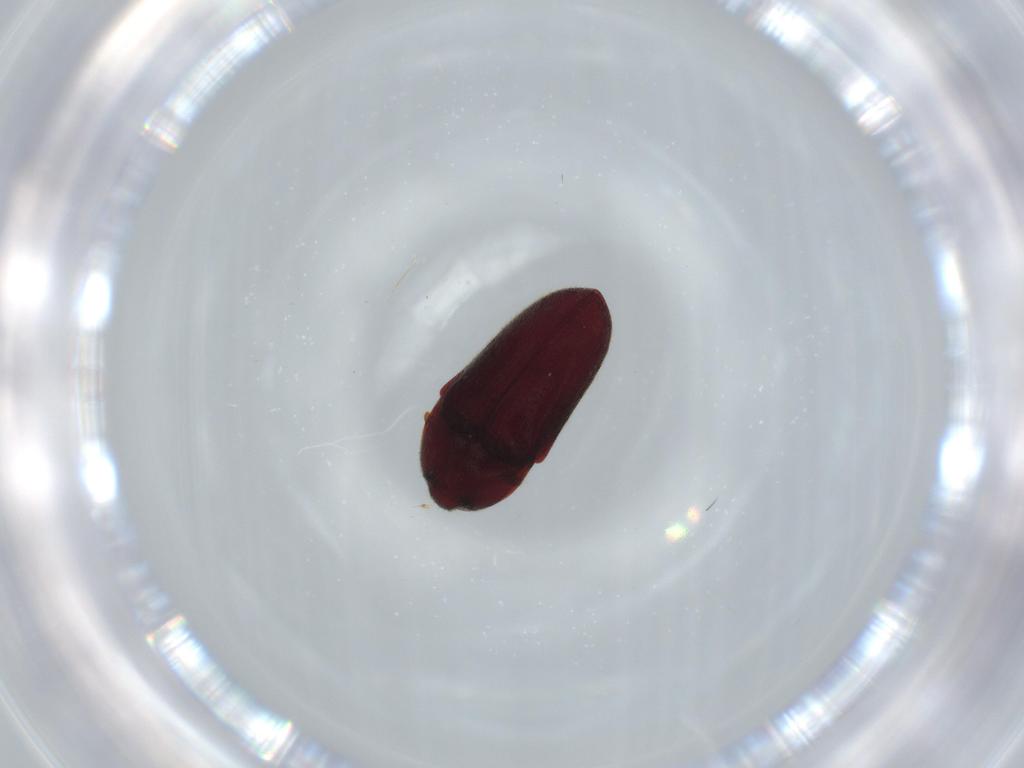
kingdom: Animalia
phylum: Arthropoda
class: Insecta
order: Coleoptera
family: Throscidae
